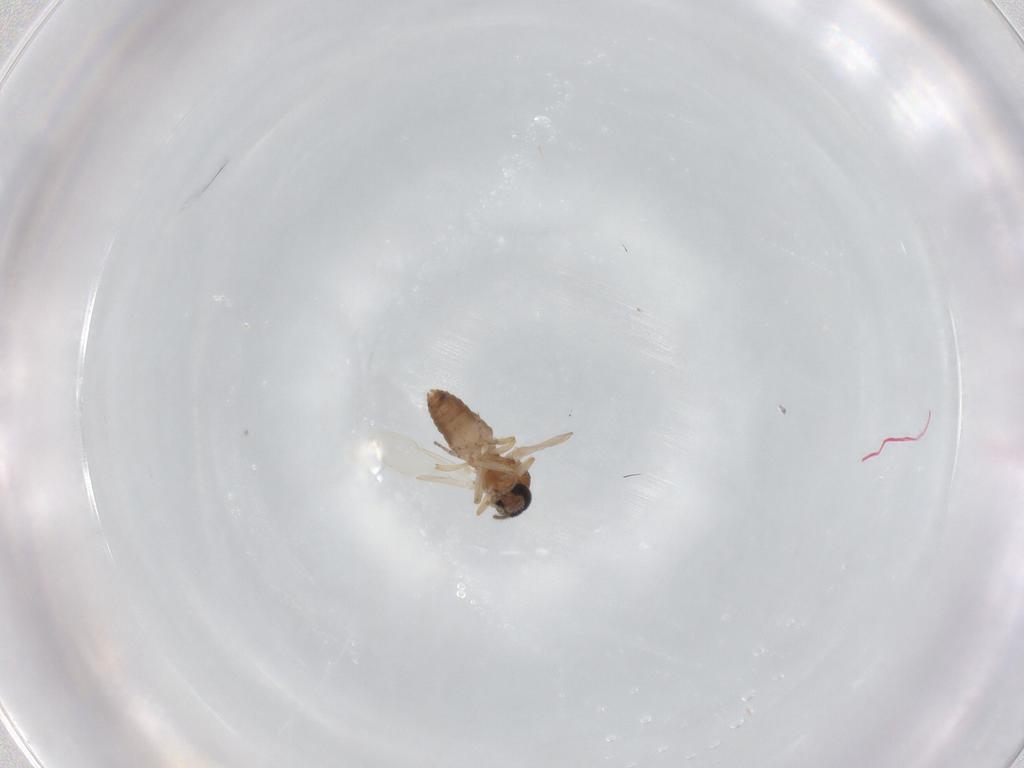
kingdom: Animalia
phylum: Arthropoda
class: Insecta
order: Diptera
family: Ceratopogonidae
